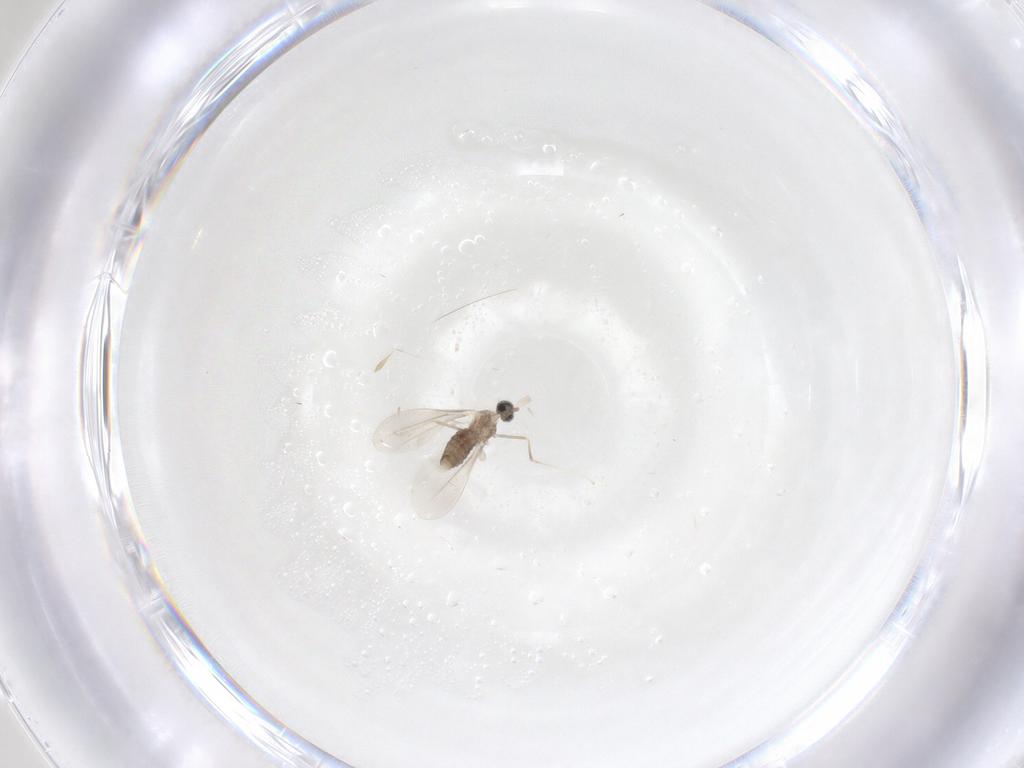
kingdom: Animalia
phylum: Arthropoda
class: Insecta
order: Diptera
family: Cecidomyiidae
